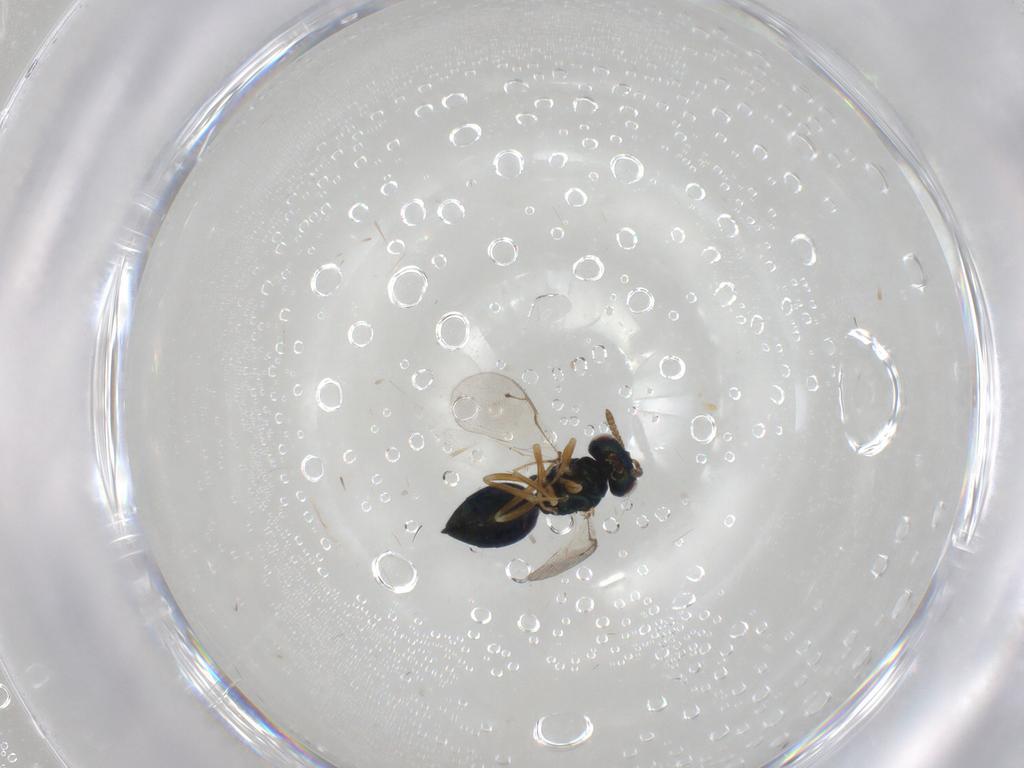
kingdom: Animalia
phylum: Arthropoda
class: Insecta
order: Hymenoptera
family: Pteromalidae
